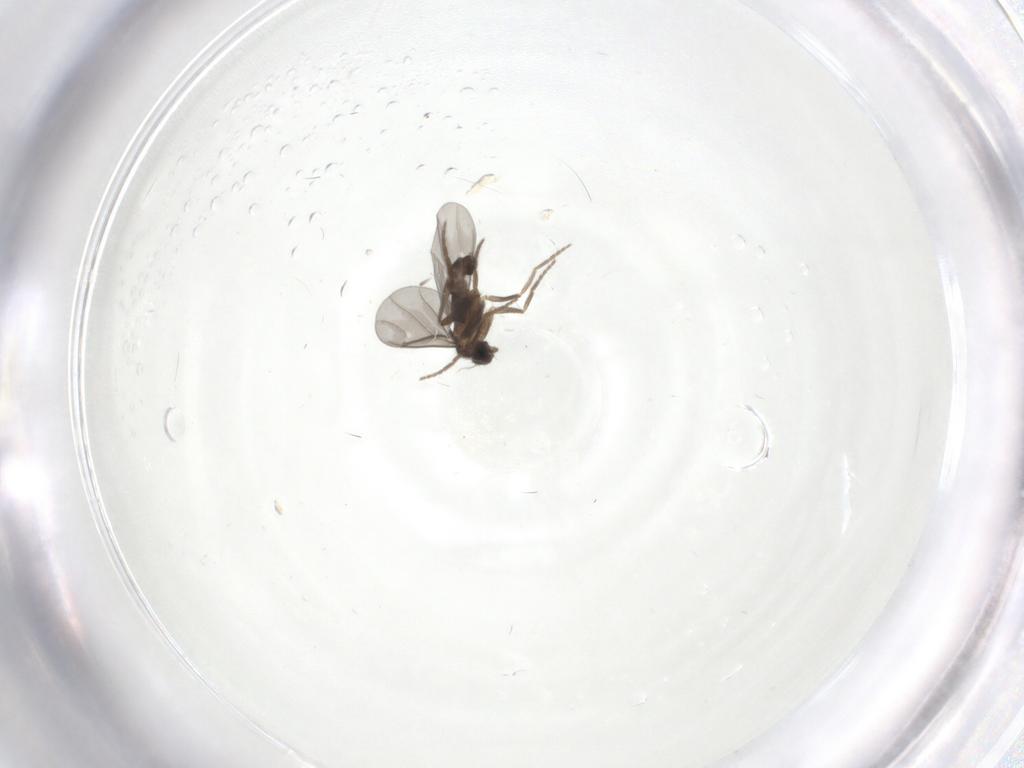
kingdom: Animalia
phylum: Arthropoda
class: Insecta
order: Diptera
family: Phoridae
